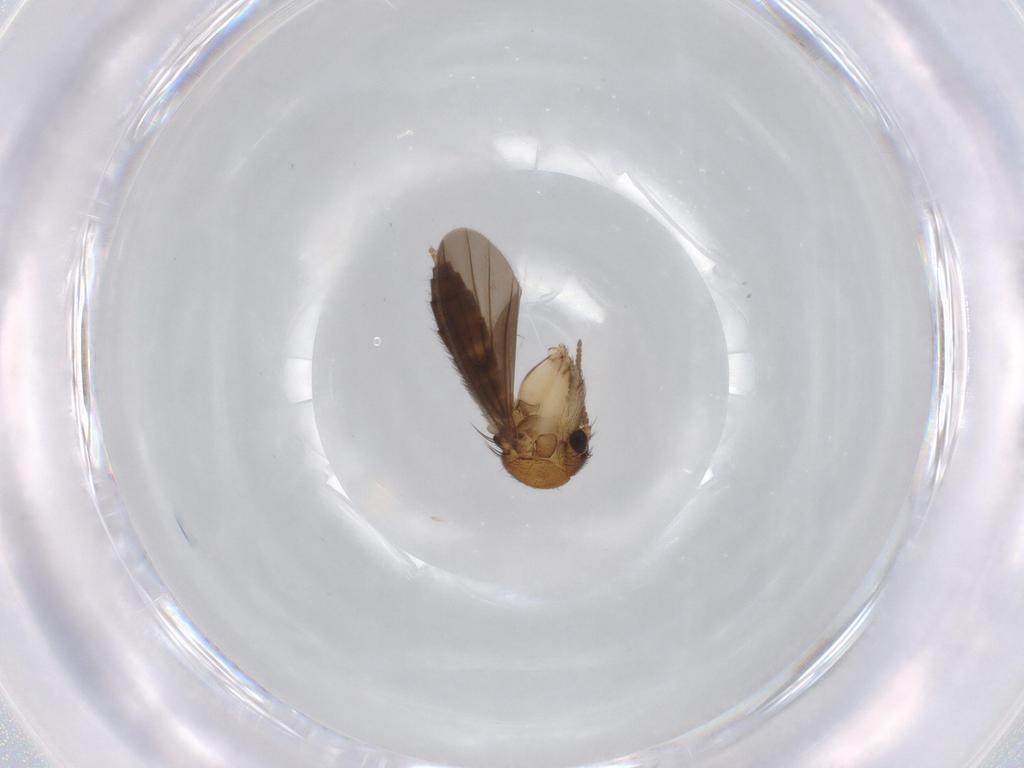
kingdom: Animalia
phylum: Arthropoda
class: Insecta
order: Diptera
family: Mycetophilidae
